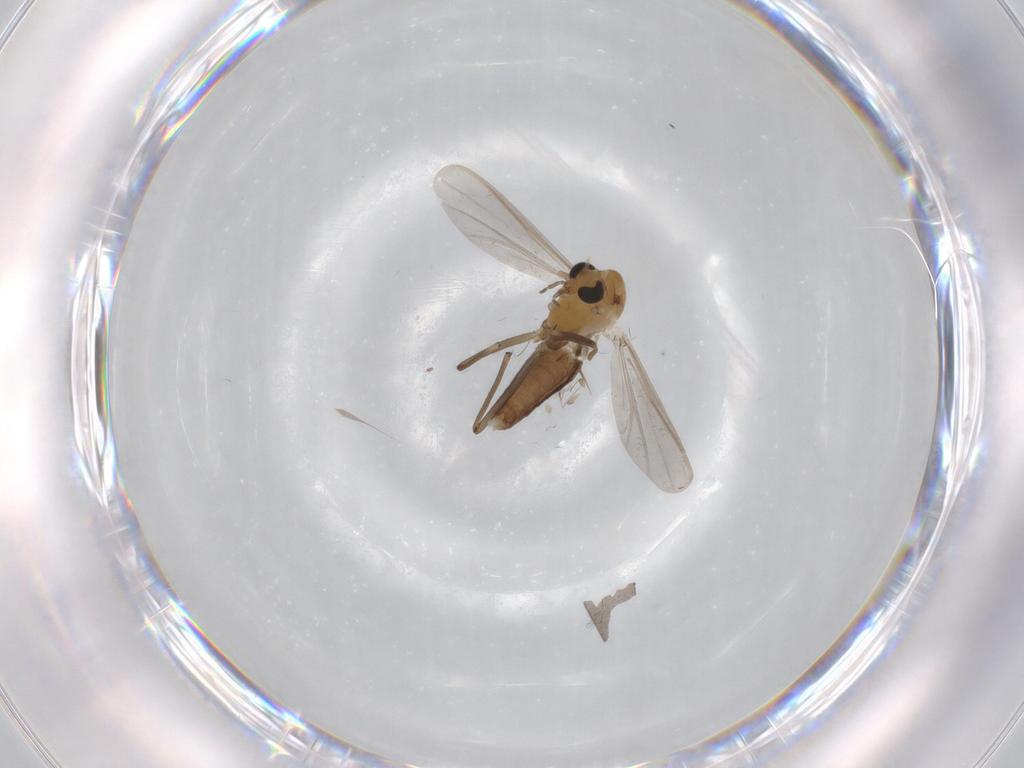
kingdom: Animalia
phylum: Arthropoda
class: Insecta
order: Diptera
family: Chironomidae
